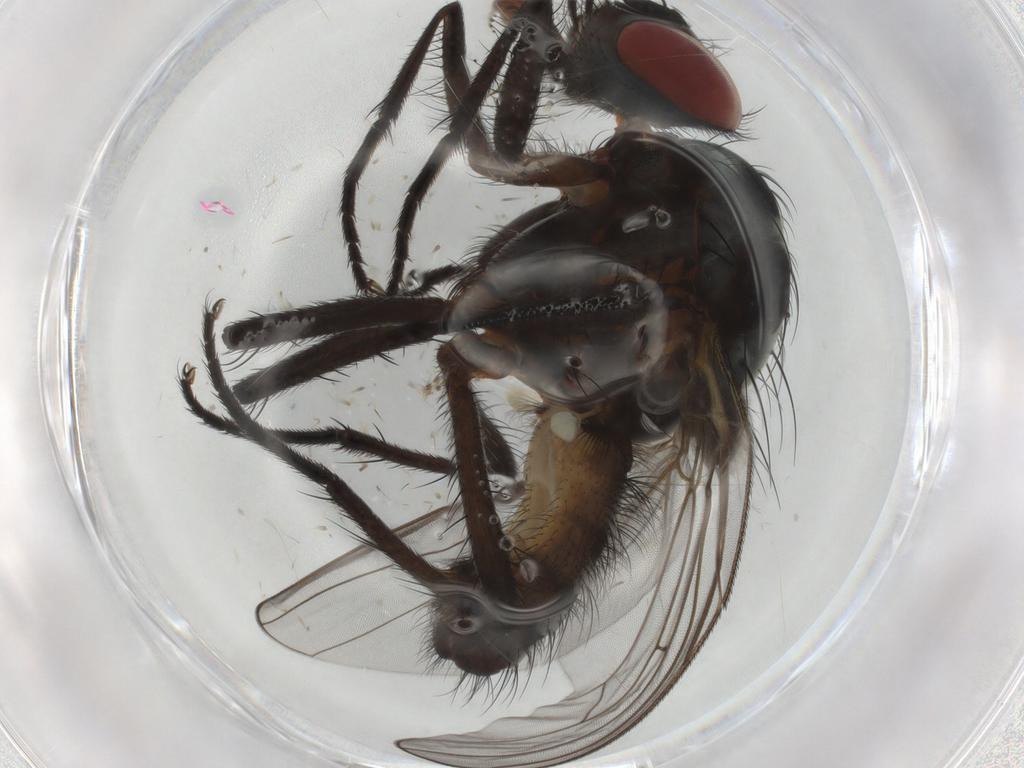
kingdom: Animalia
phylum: Arthropoda
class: Insecta
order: Diptera
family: Anthomyiidae
